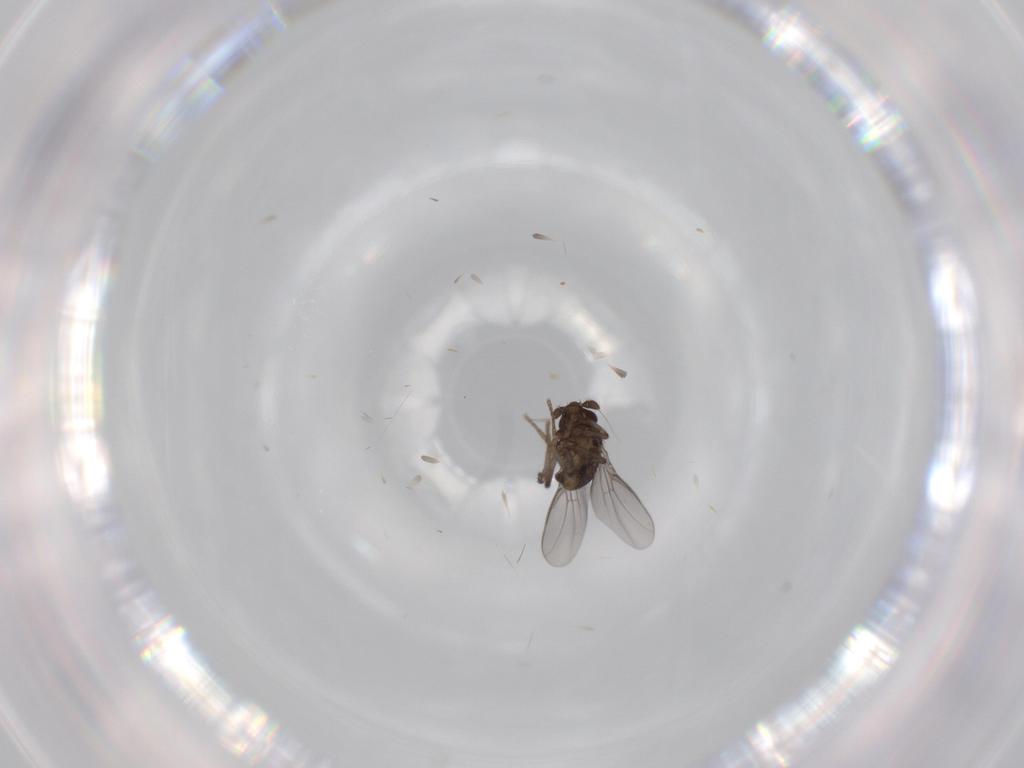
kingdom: Animalia
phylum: Arthropoda
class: Insecta
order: Diptera
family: Sphaeroceridae
